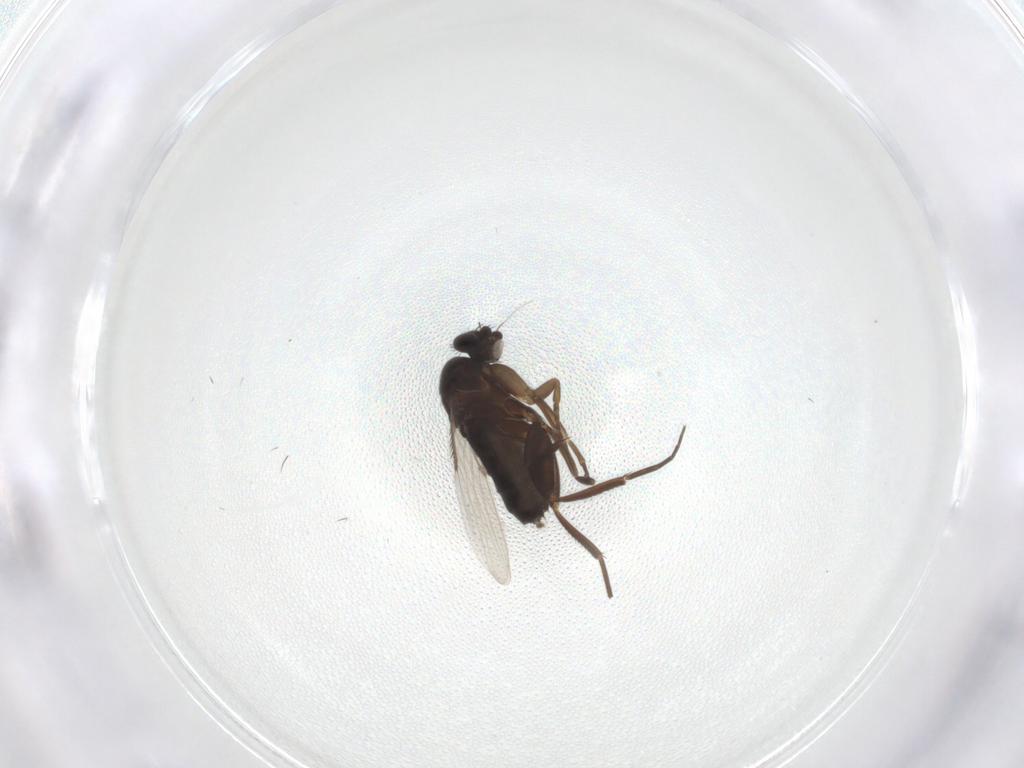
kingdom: Animalia
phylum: Arthropoda
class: Insecta
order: Diptera
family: Phoridae
